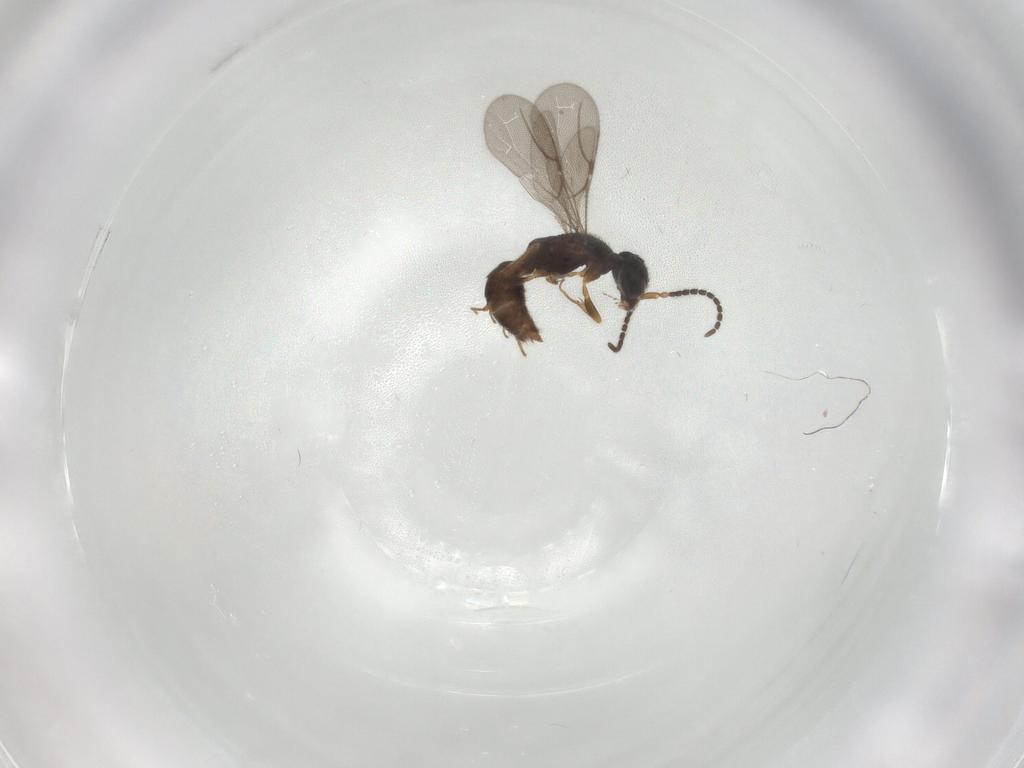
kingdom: Animalia
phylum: Arthropoda
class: Insecta
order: Hymenoptera
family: Bethylidae
